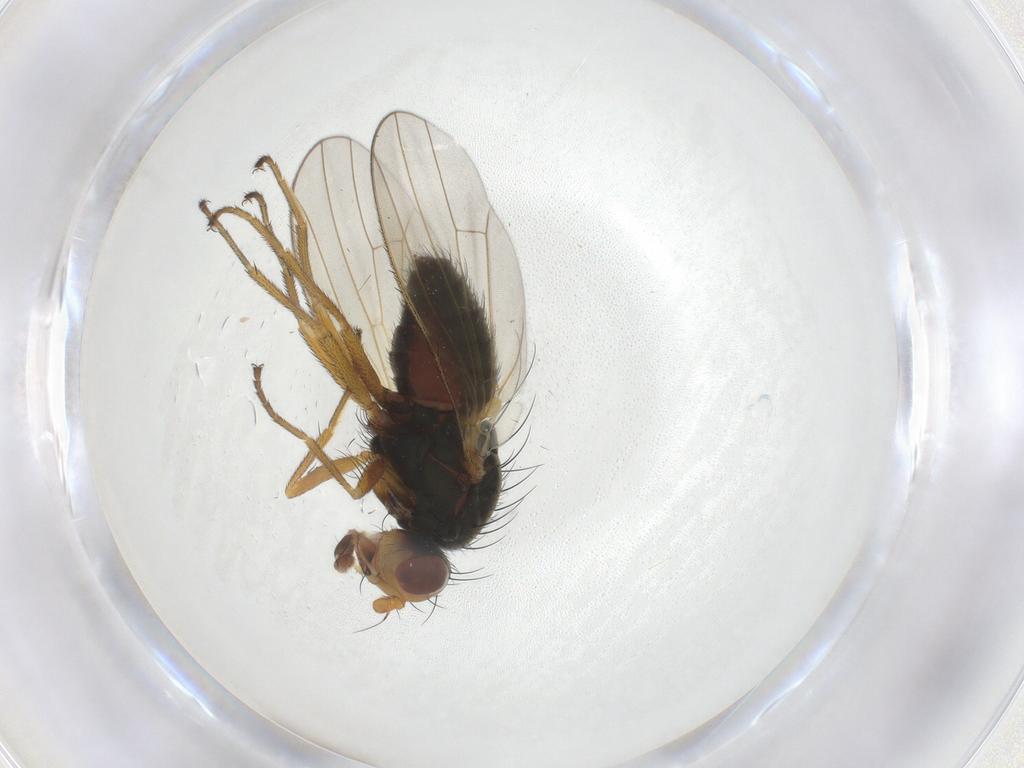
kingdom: Animalia
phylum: Arthropoda
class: Insecta
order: Diptera
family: Heleomyzidae
